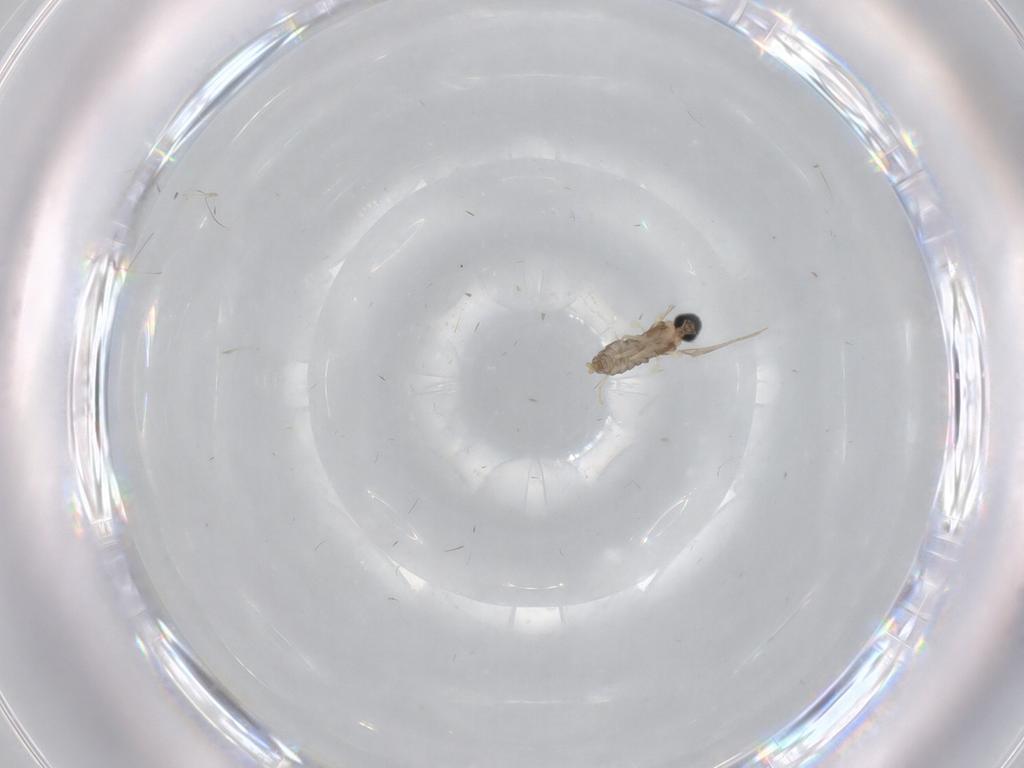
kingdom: Animalia
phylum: Arthropoda
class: Insecta
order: Diptera
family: Cecidomyiidae
